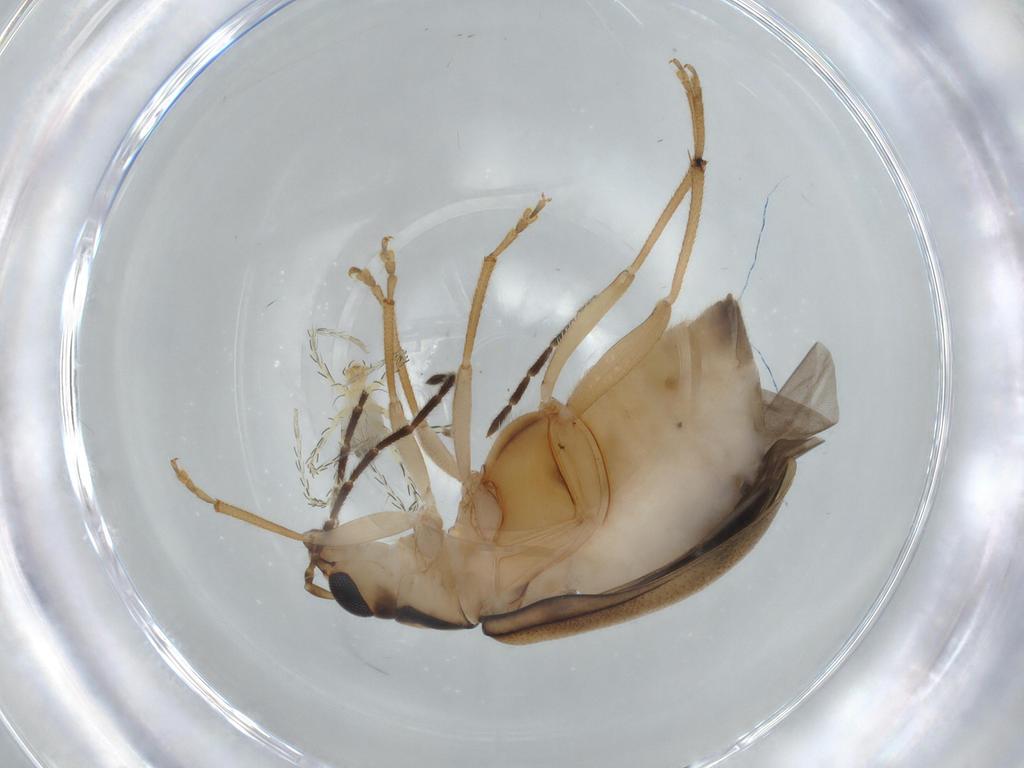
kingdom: Animalia
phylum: Arthropoda
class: Insecta
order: Coleoptera
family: Chrysomelidae
